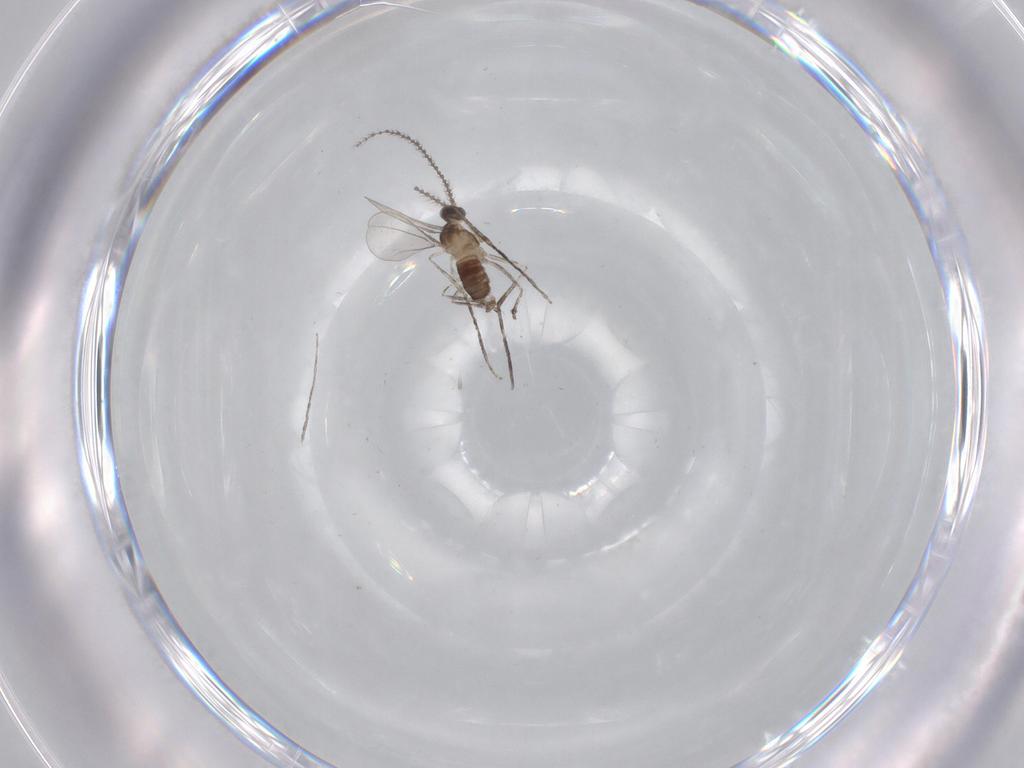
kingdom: Animalia
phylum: Arthropoda
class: Insecta
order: Diptera
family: Cecidomyiidae
